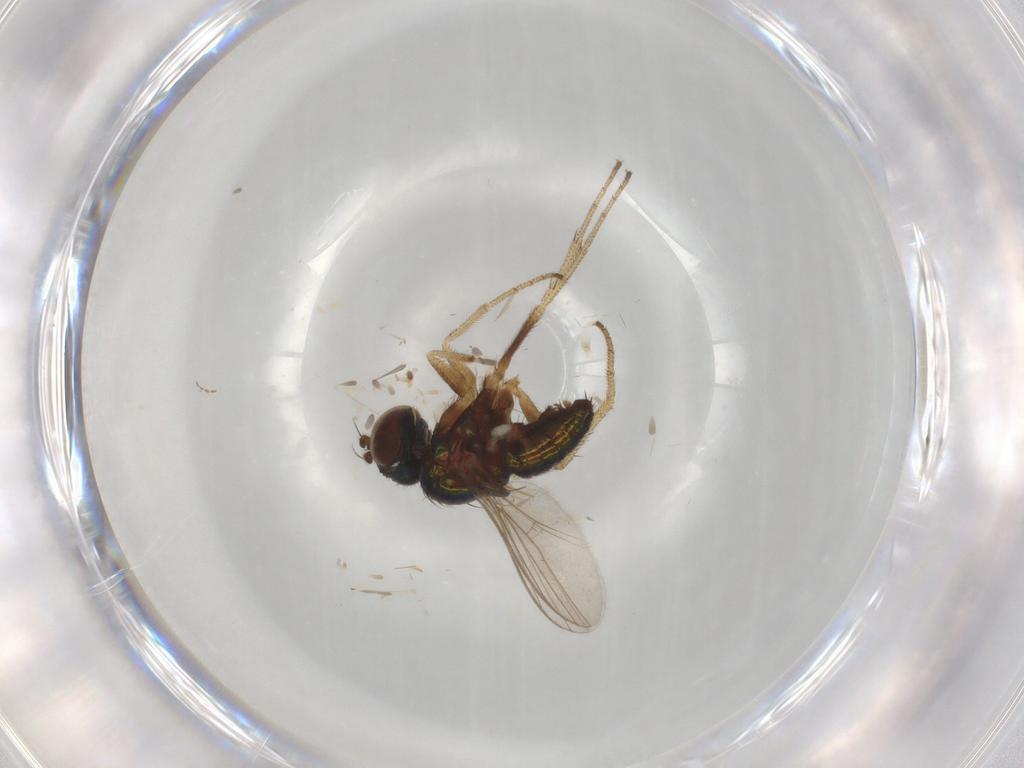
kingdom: Animalia
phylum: Arthropoda
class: Insecta
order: Diptera
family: Dolichopodidae
